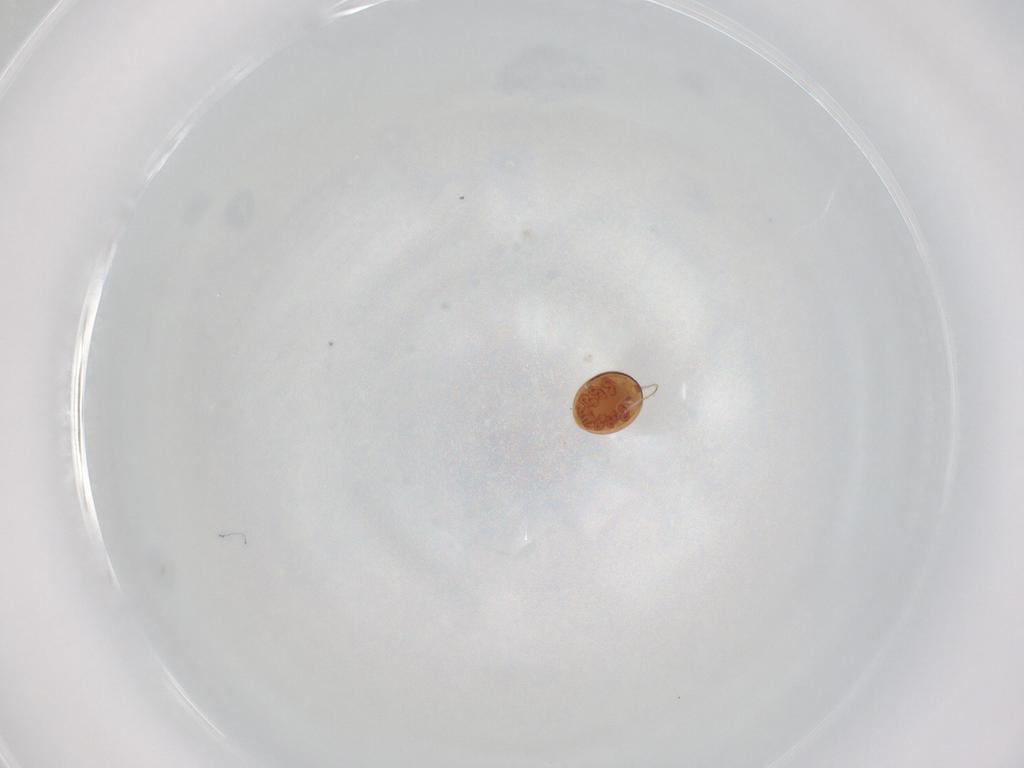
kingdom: Animalia
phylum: Arthropoda
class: Arachnida
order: Mesostigmata
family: Uropodidae
